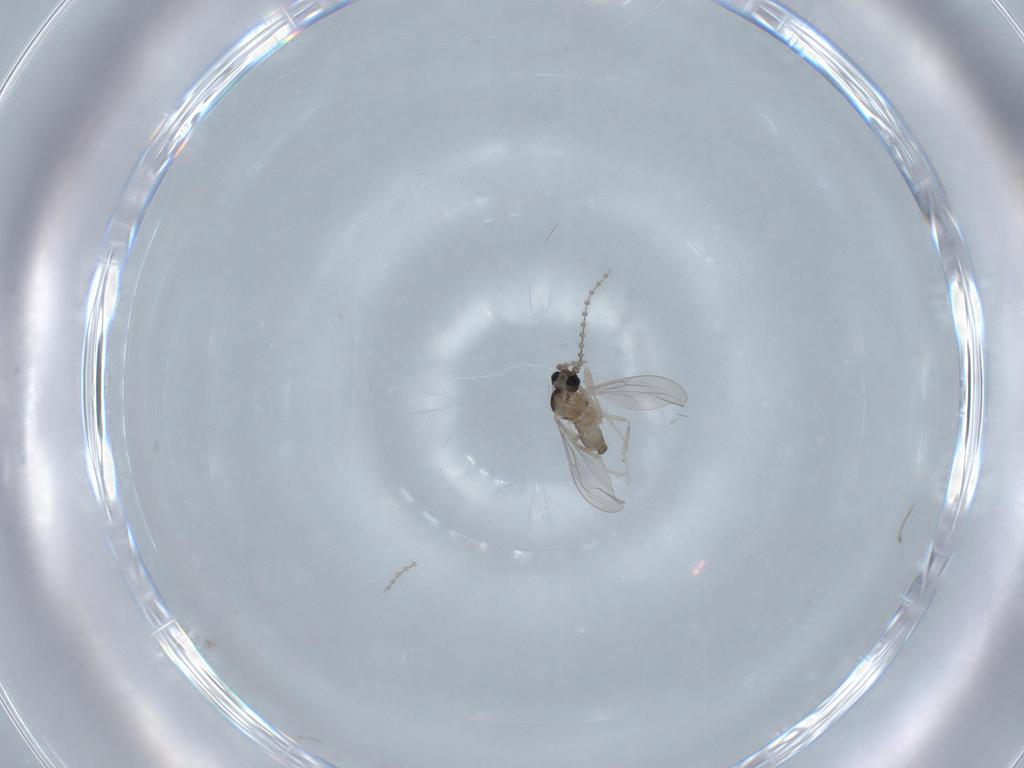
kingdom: Animalia
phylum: Arthropoda
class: Insecta
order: Diptera
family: Cecidomyiidae
